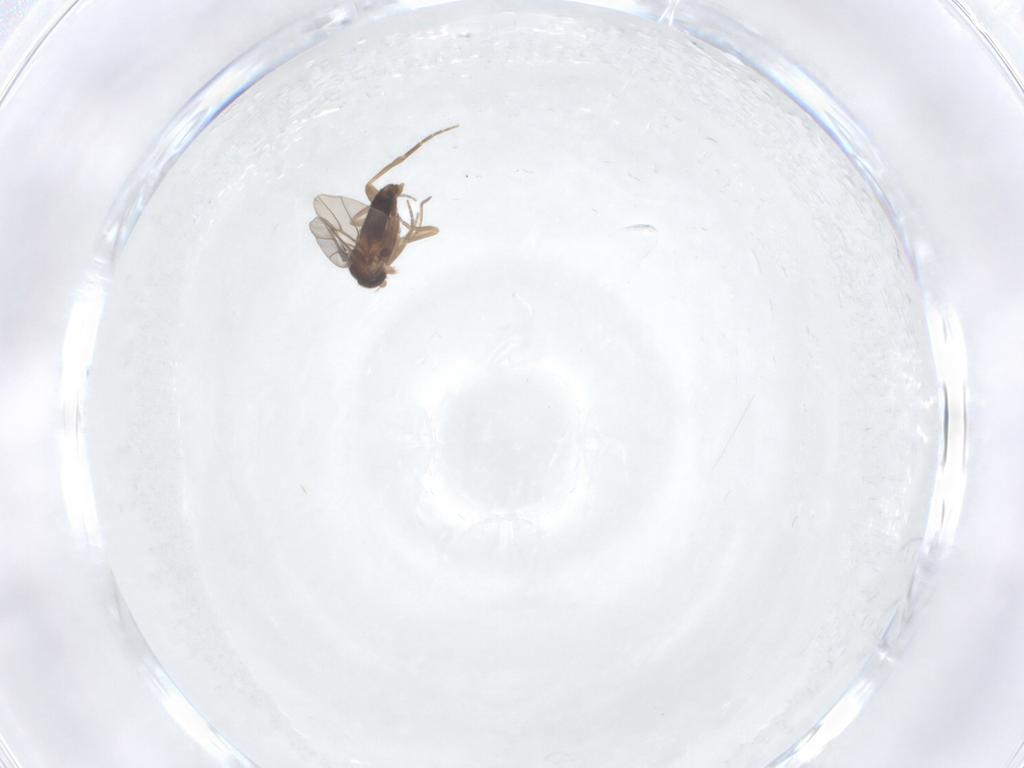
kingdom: Animalia
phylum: Arthropoda
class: Insecta
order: Diptera
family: Phoridae
